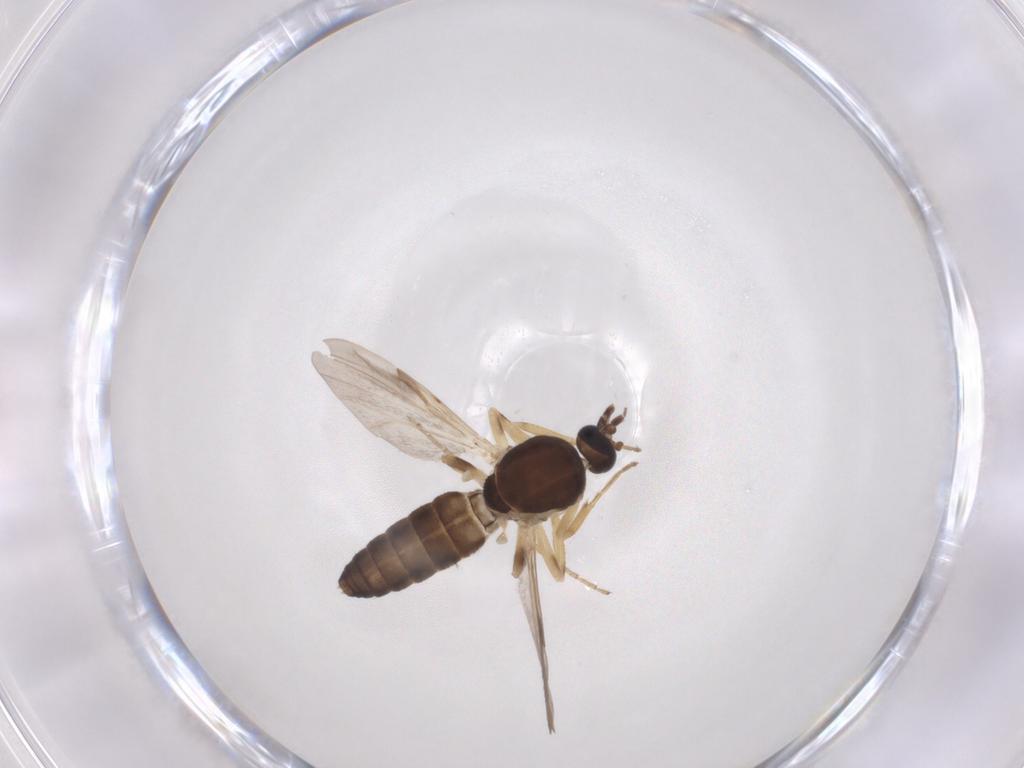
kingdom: Animalia
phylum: Arthropoda
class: Insecta
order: Diptera
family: Ceratopogonidae
